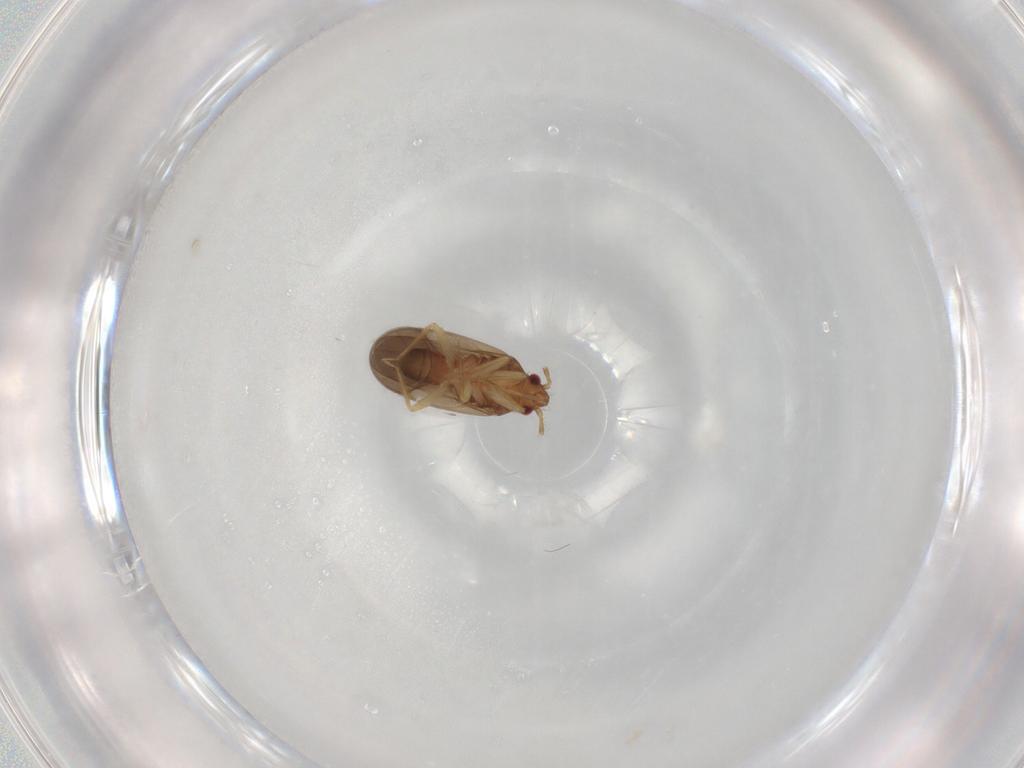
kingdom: Animalia
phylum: Arthropoda
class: Insecta
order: Hemiptera
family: Ceratocombidae
